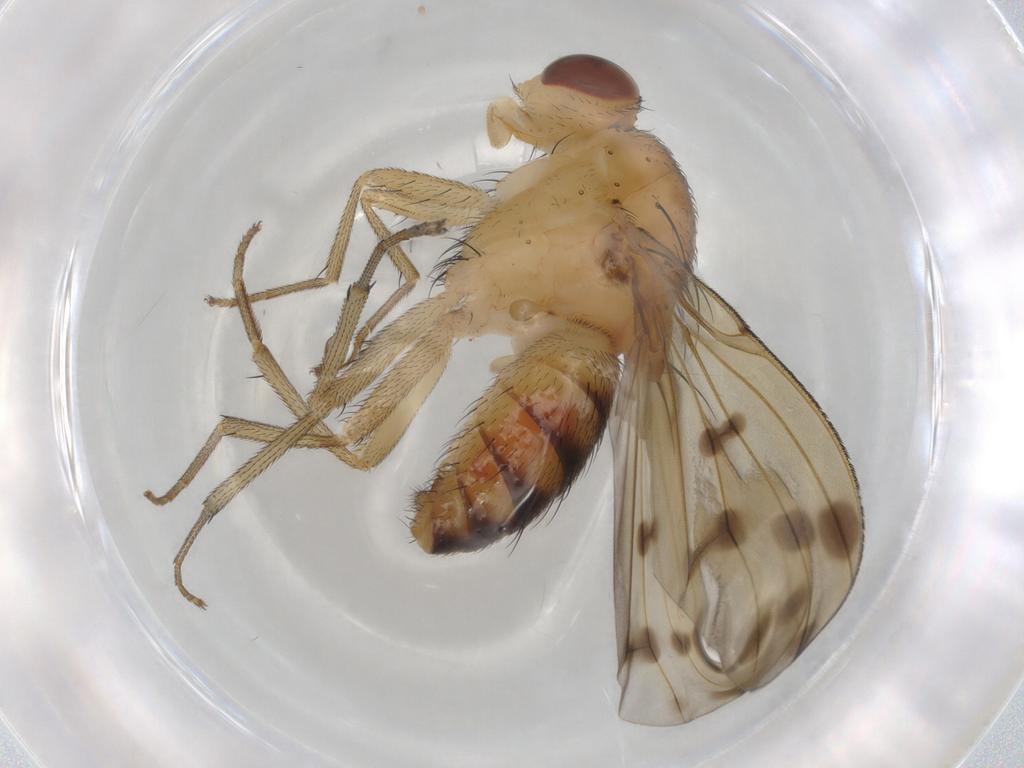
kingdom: Animalia
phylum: Arthropoda
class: Insecta
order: Diptera
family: Lauxaniidae
